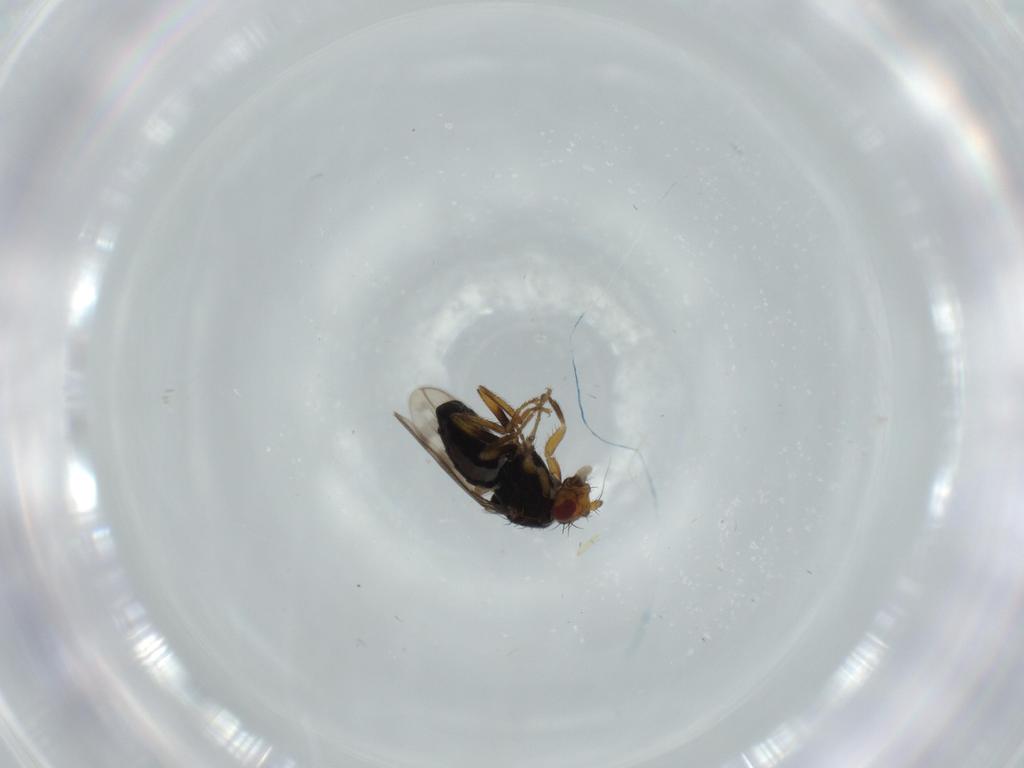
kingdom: Animalia
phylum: Arthropoda
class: Insecta
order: Diptera
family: Sphaeroceridae
